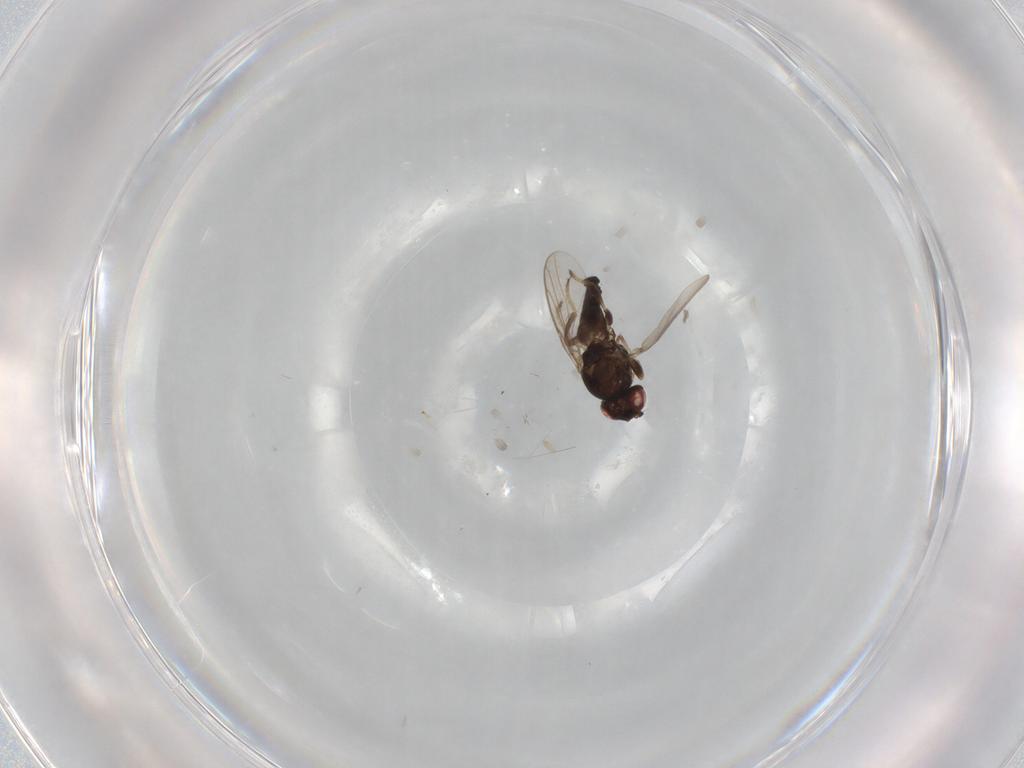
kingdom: Animalia
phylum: Arthropoda
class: Insecta
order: Diptera
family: Chloropidae
